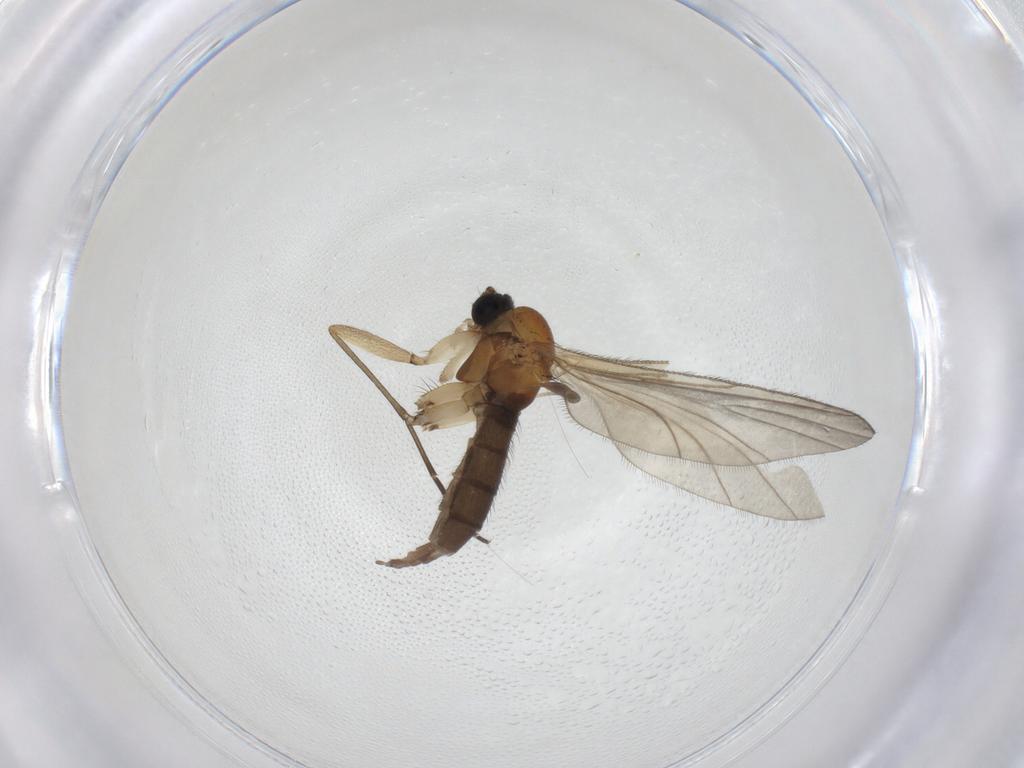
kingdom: Animalia
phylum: Arthropoda
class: Insecta
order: Diptera
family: Sciaridae
